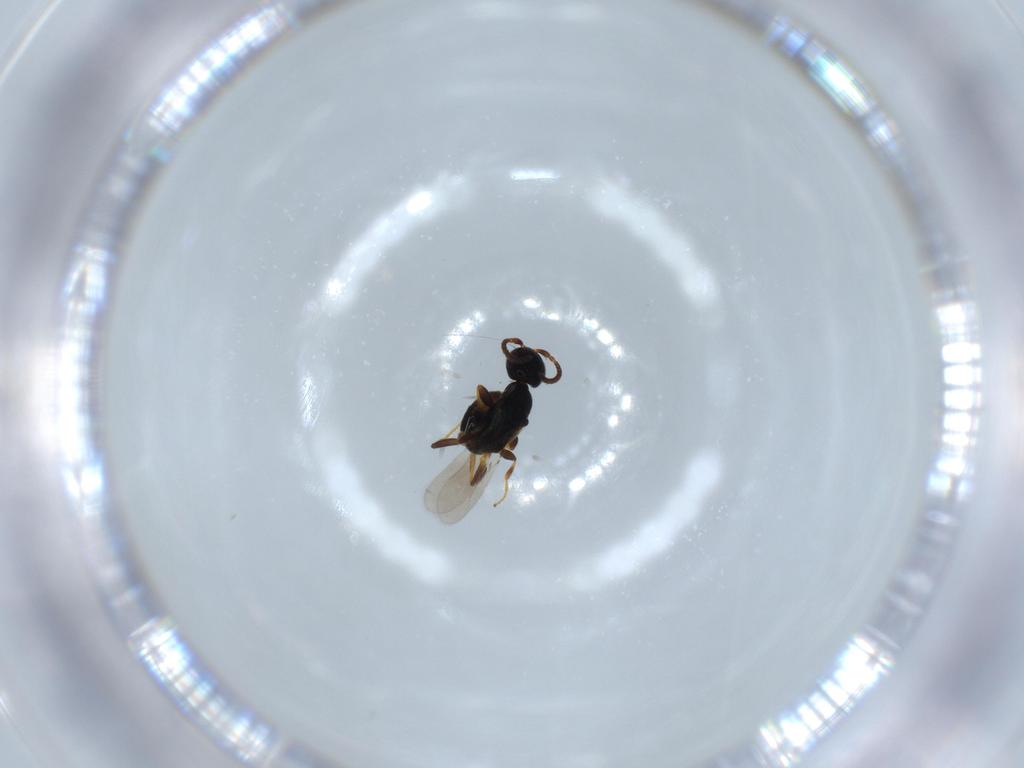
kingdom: Animalia
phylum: Arthropoda
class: Insecta
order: Hymenoptera
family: Bethylidae
